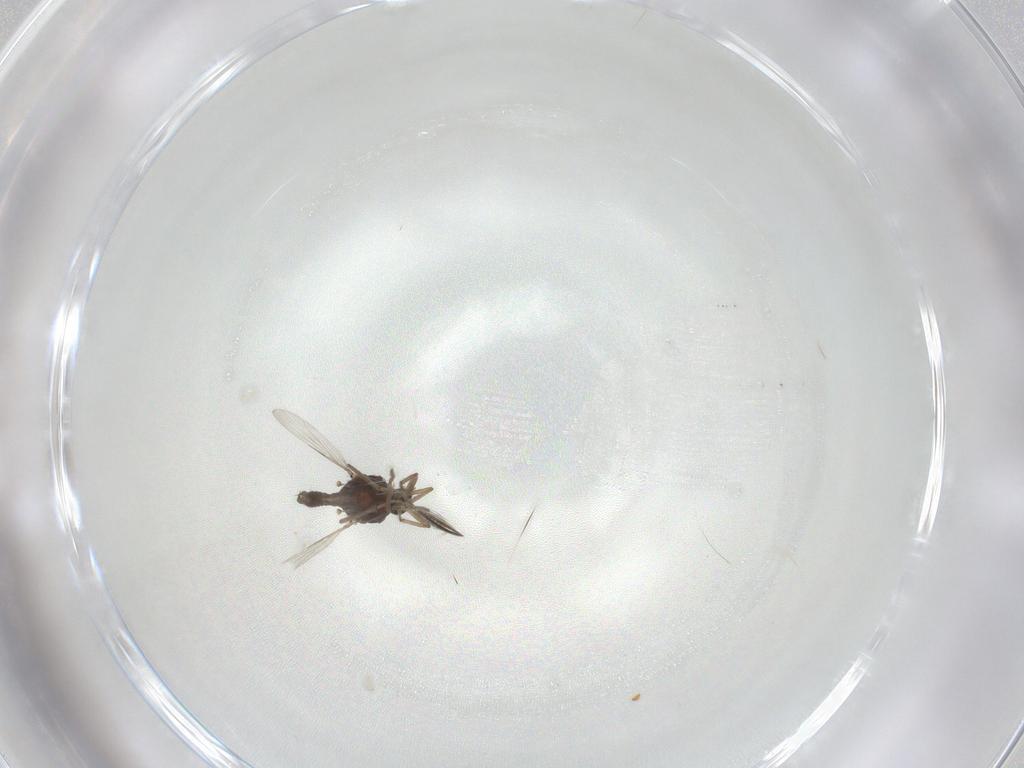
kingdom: Animalia
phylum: Arthropoda
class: Insecta
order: Diptera
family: Ceratopogonidae
